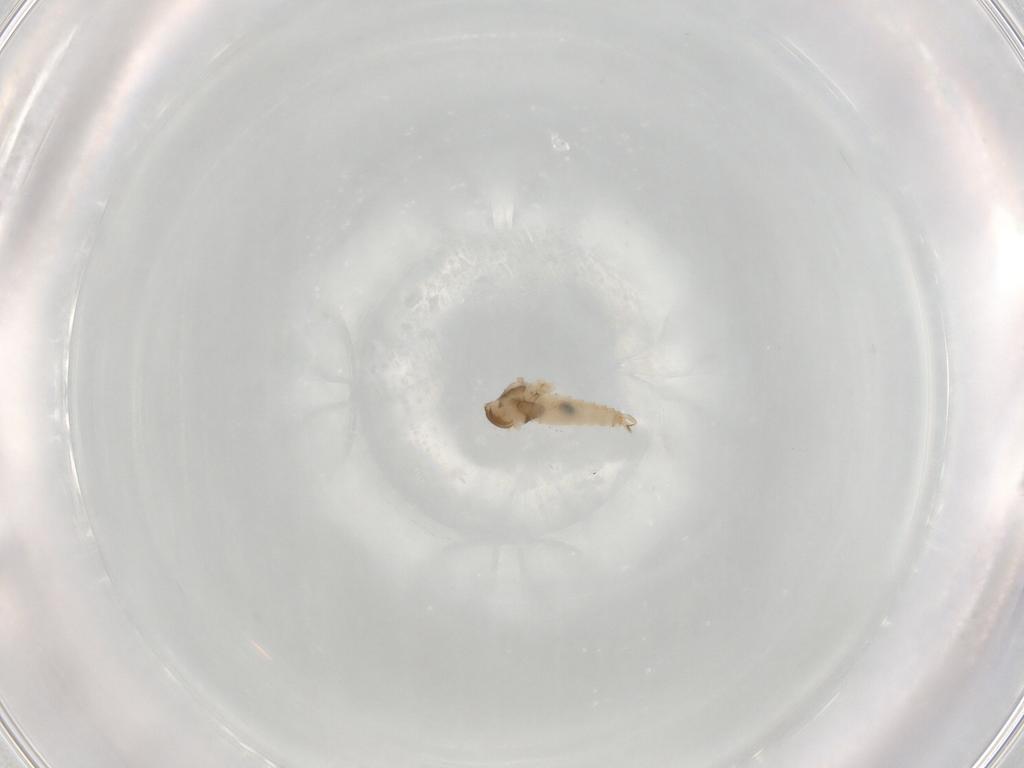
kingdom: Animalia
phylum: Arthropoda
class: Insecta
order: Diptera
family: Cecidomyiidae
